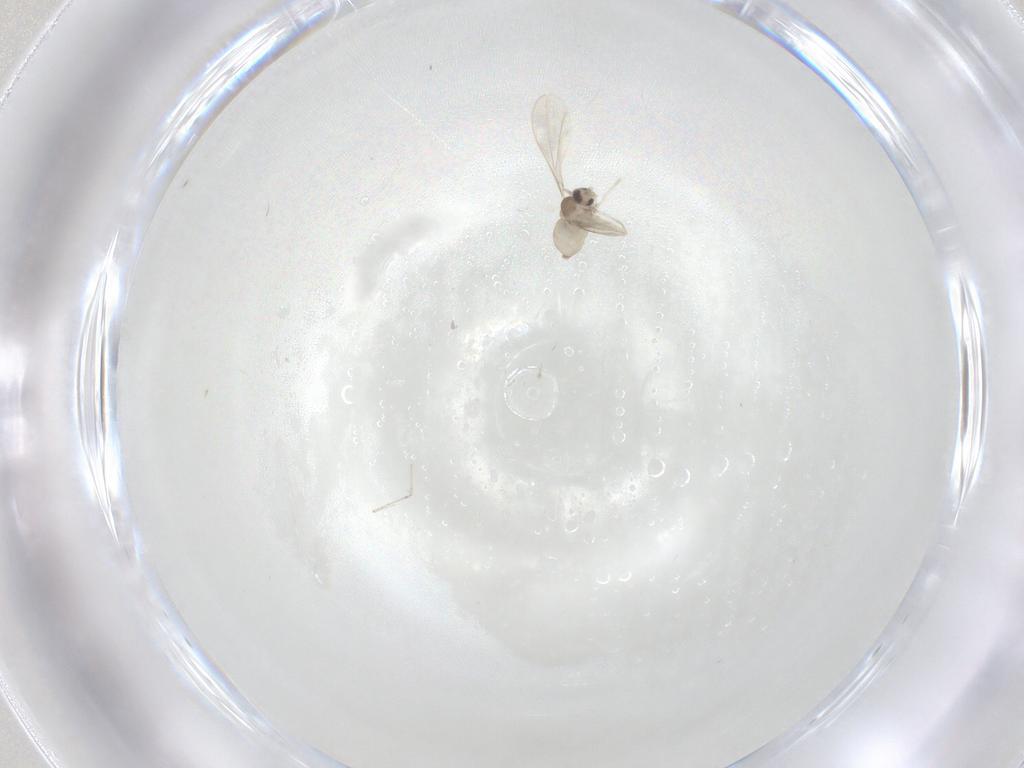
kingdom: Animalia
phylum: Arthropoda
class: Insecta
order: Diptera
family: Cecidomyiidae
